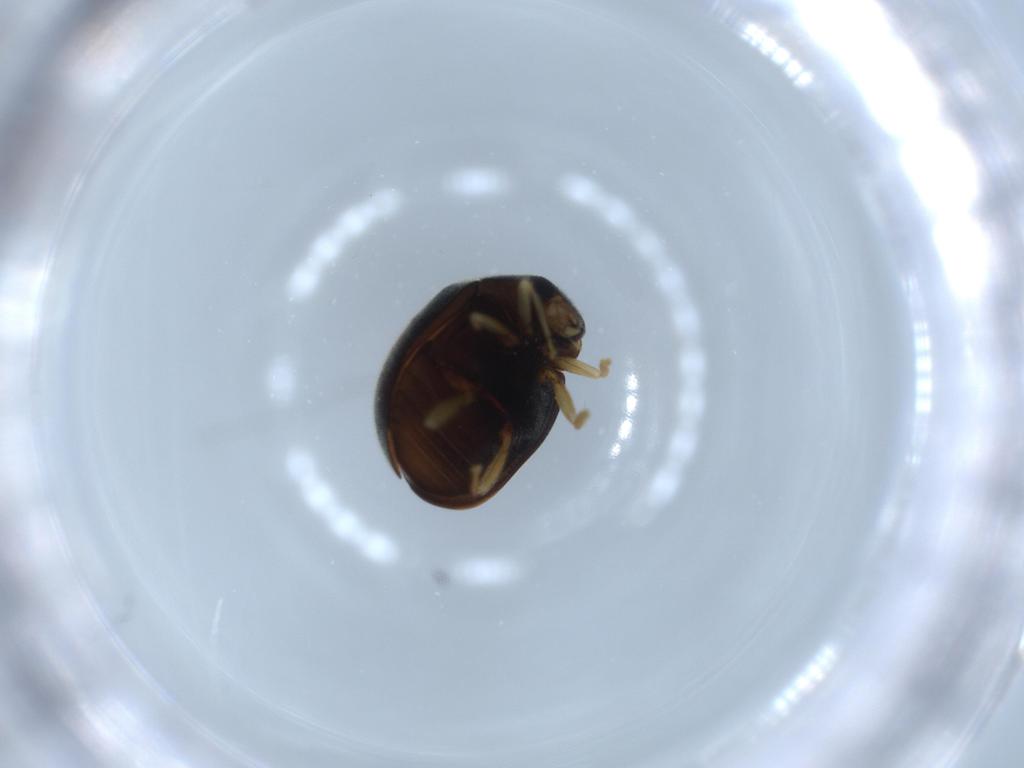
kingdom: Animalia
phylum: Arthropoda
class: Insecta
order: Coleoptera
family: Coccinellidae
